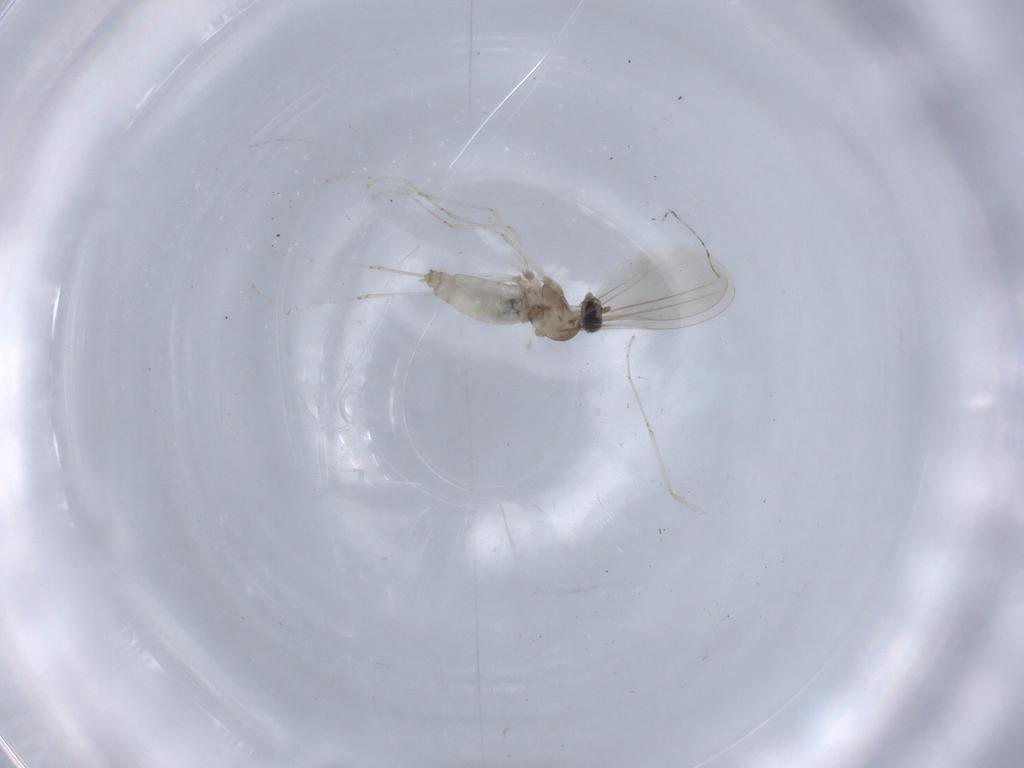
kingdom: Animalia
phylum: Arthropoda
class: Insecta
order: Diptera
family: Cecidomyiidae
